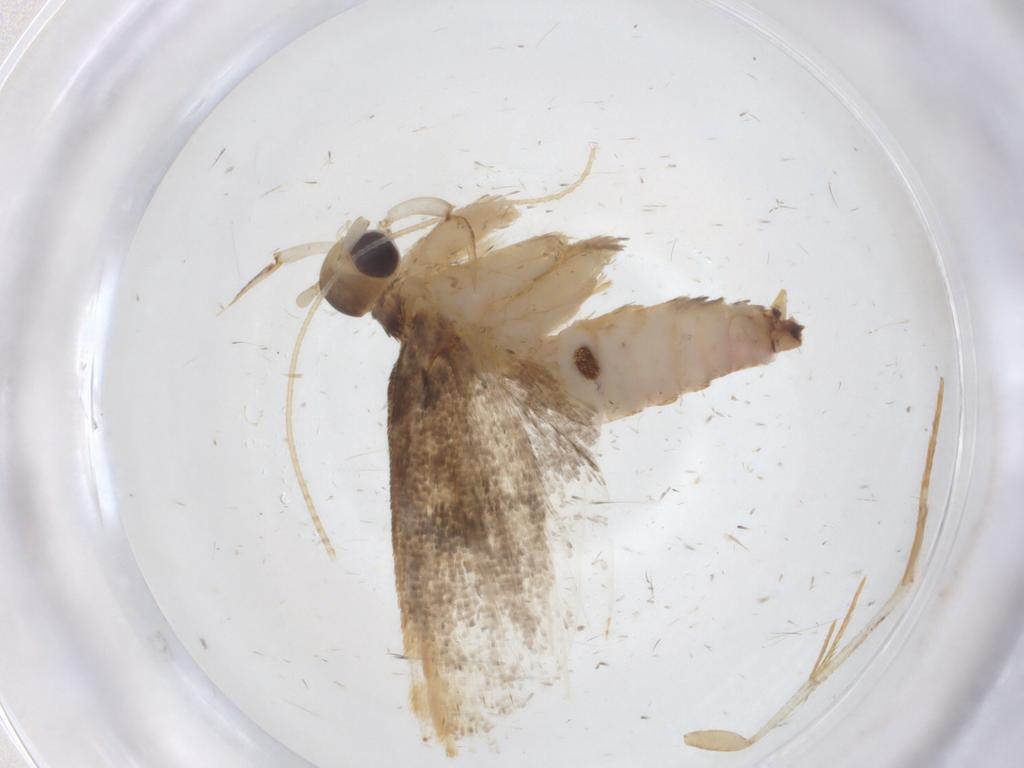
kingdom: Animalia
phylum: Arthropoda
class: Insecta
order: Lepidoptera
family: Lecithoceridae
